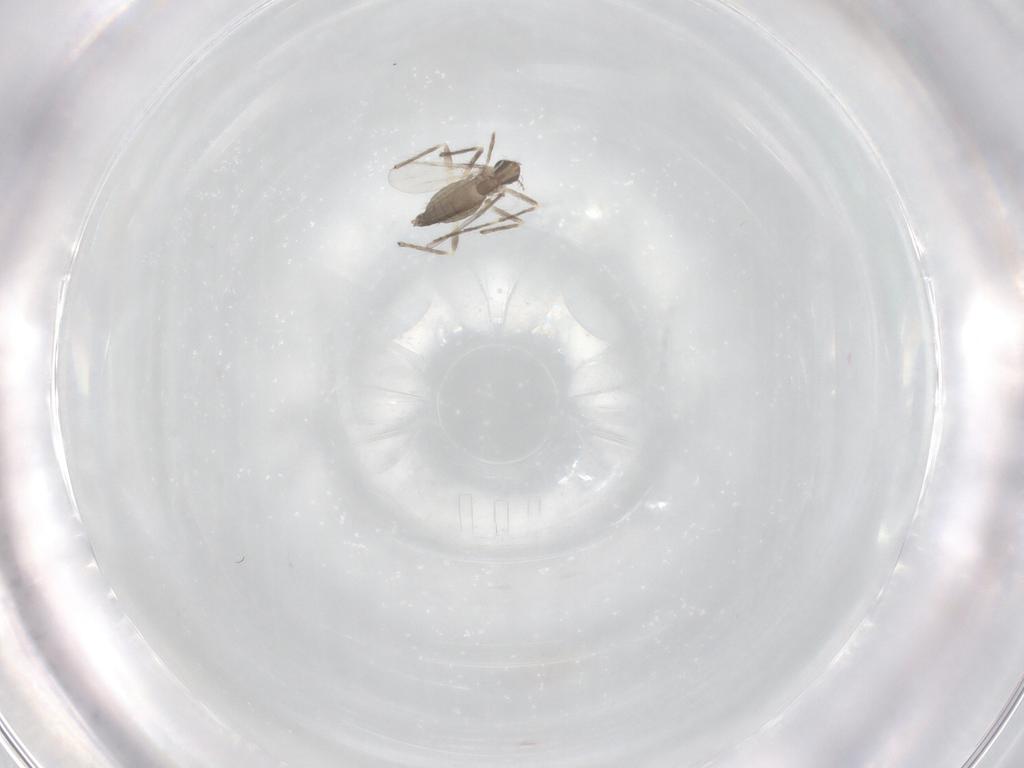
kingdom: Animalia
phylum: Arthropoda
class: Insecta
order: Diptera
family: Chironomidae
